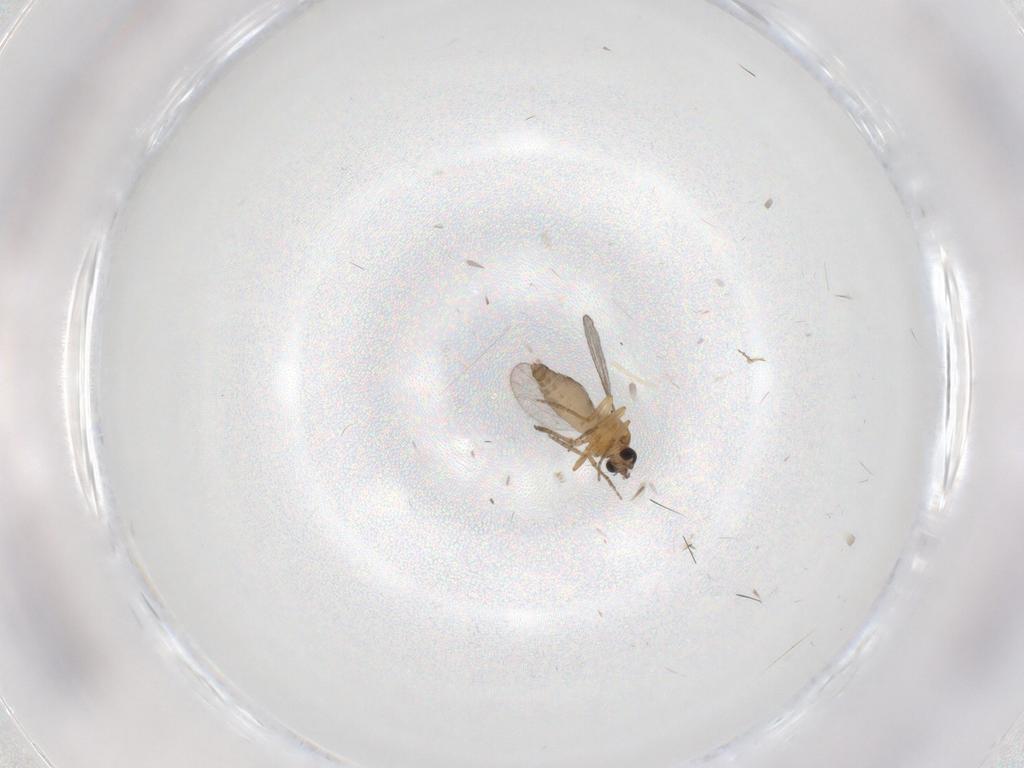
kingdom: Animalia
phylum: Arthropoda
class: Insecta
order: Diptera
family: Ceratopogonidae
